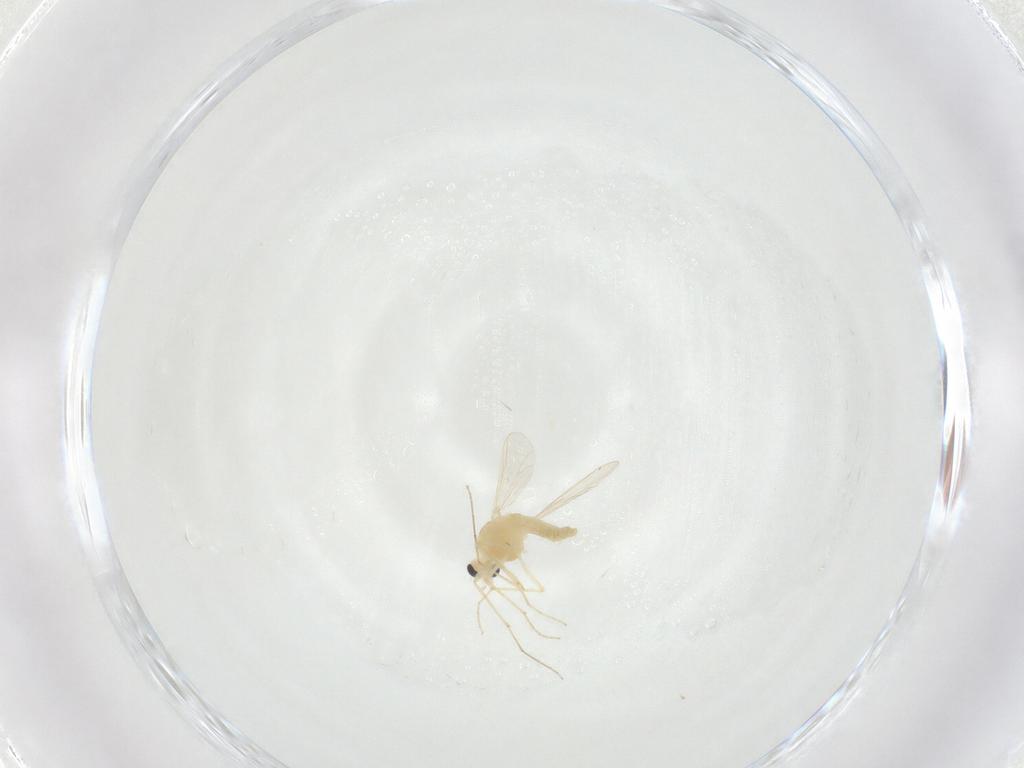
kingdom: Animalia
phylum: Arthropoda
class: Insecta
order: Diptera
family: Chironomidae
